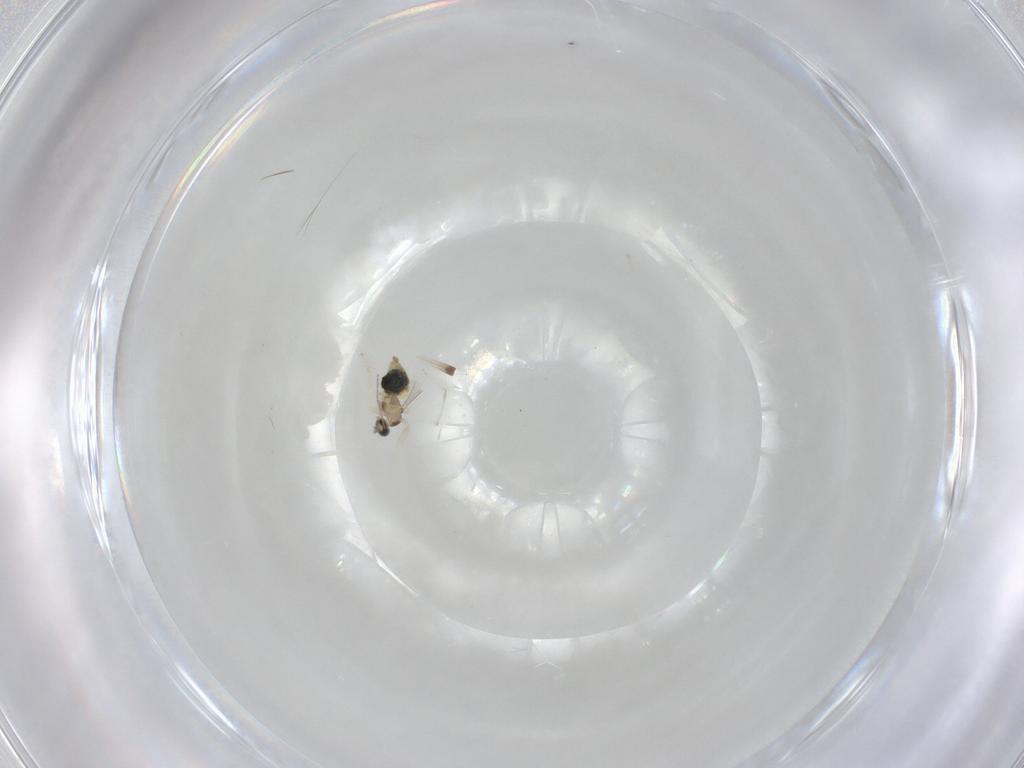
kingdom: Animalia
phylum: Arthropoda
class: Insecta
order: Diptera
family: Cecidomyiidae
